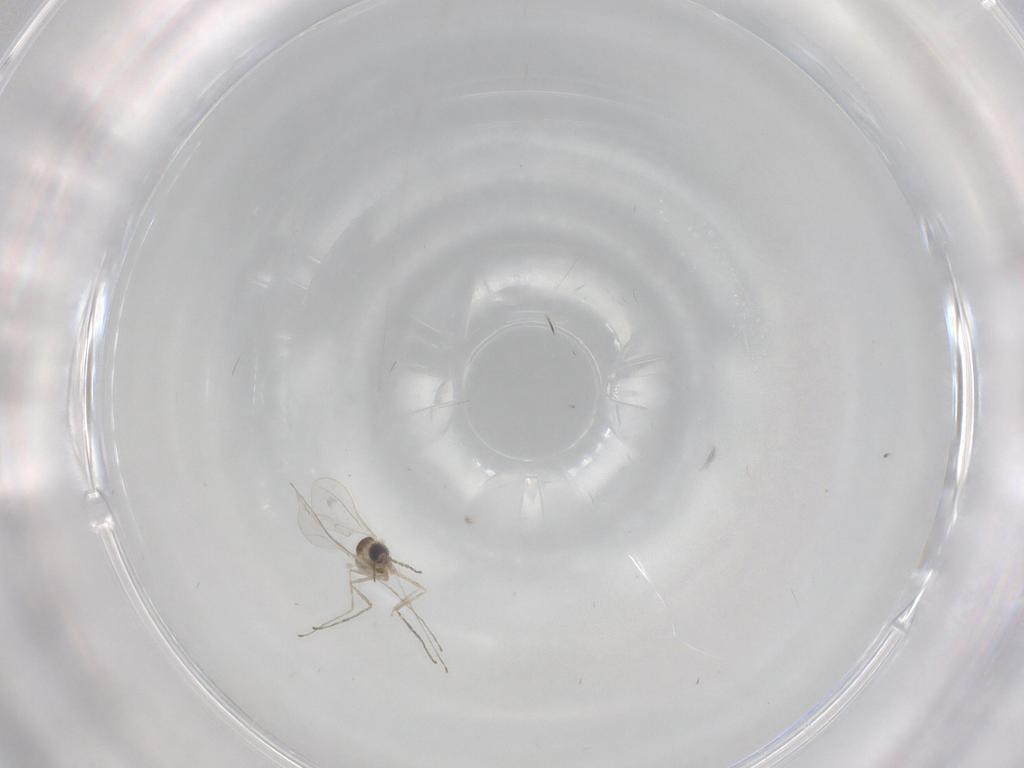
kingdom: Animalia
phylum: Arthropoda
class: Insecta
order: Diptera
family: Cecidomyiidae
